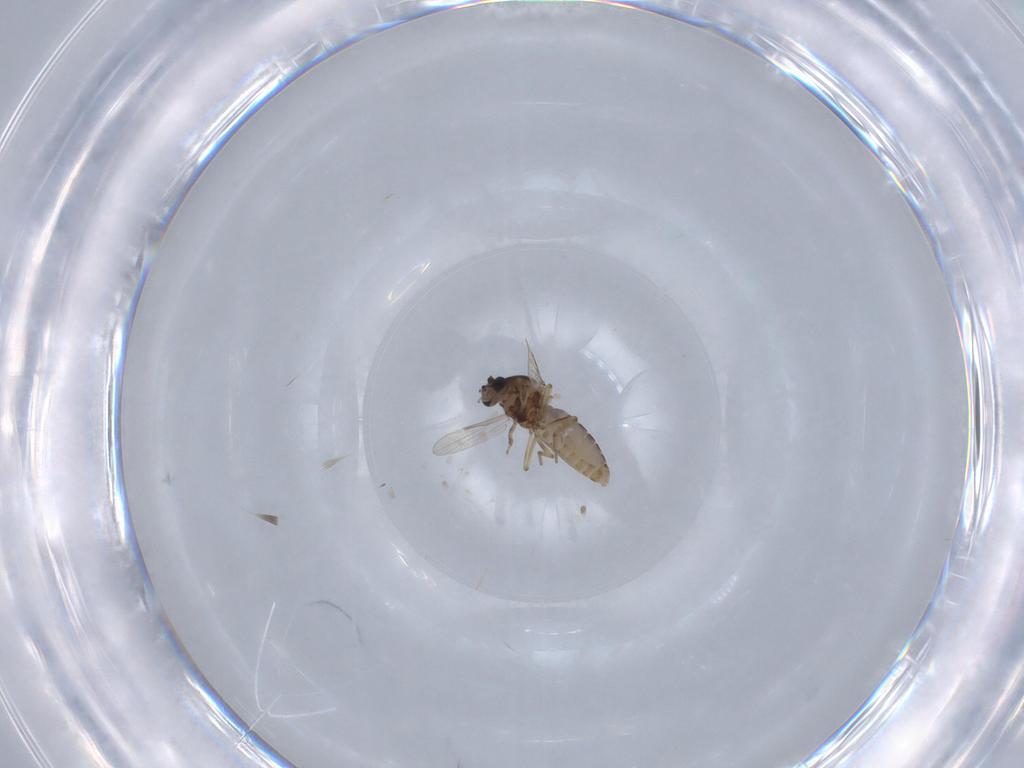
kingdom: Animalia
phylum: Arthropoda
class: Insecta
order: Diptera
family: Ceratopogonidae
